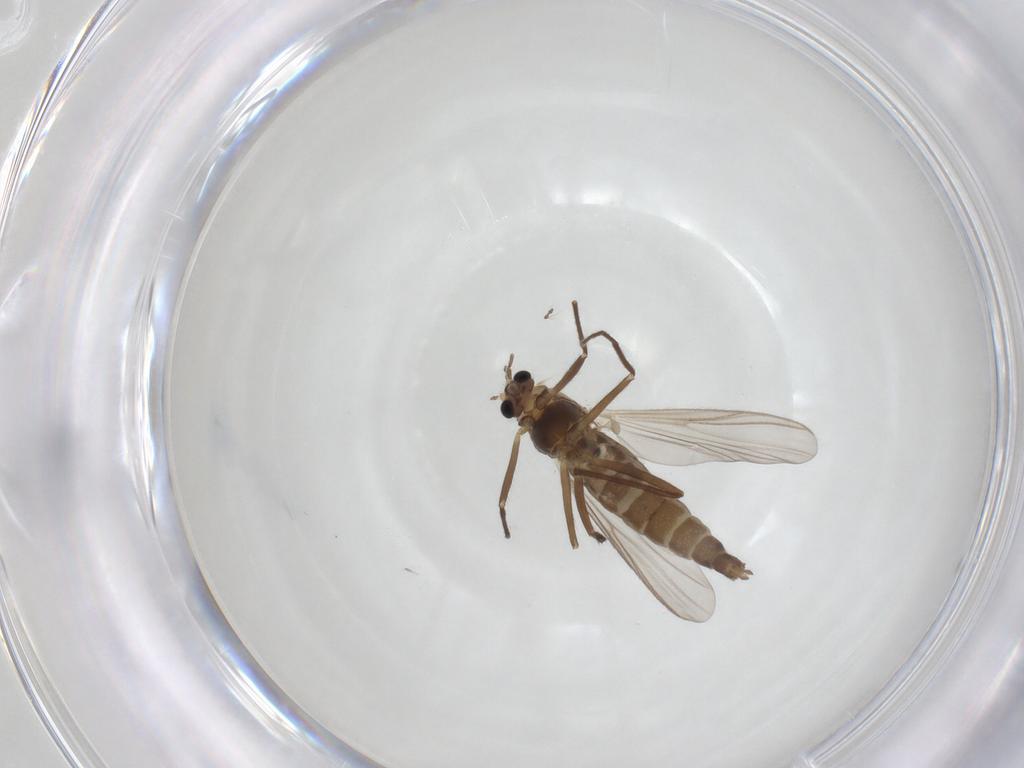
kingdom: Animalia
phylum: Arthropoda
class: Insecta
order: Diptera
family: Chironomidae
